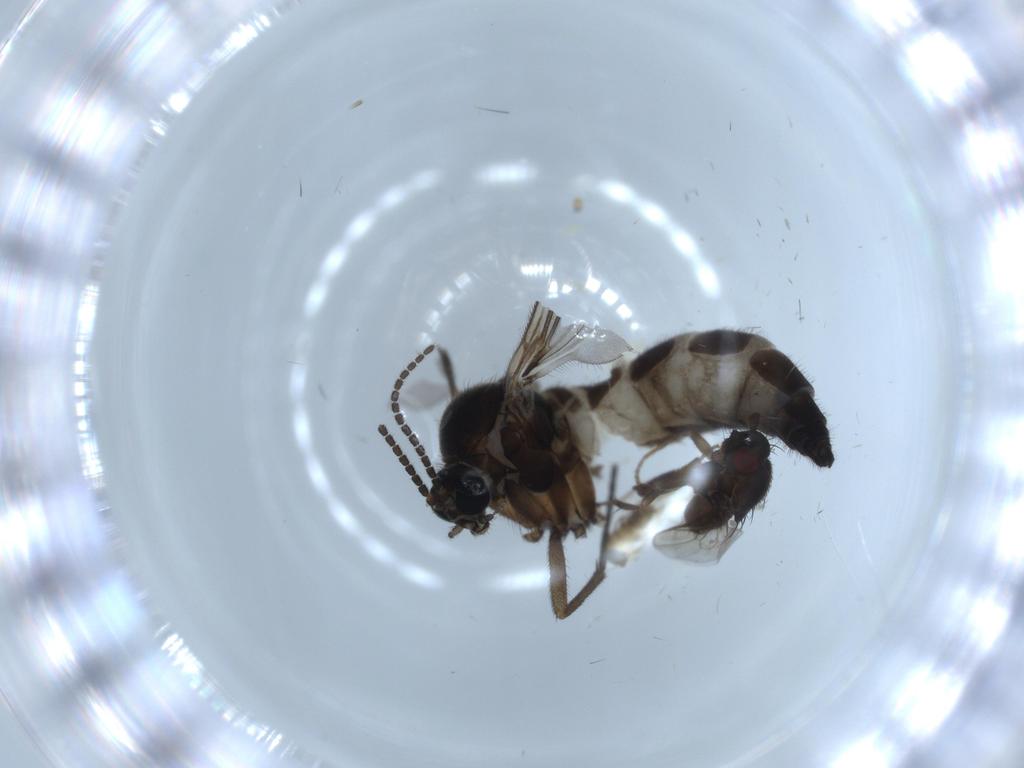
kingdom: Animalia
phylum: Arthropoda
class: Insecta
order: Diptera
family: Sphaeroceridae
